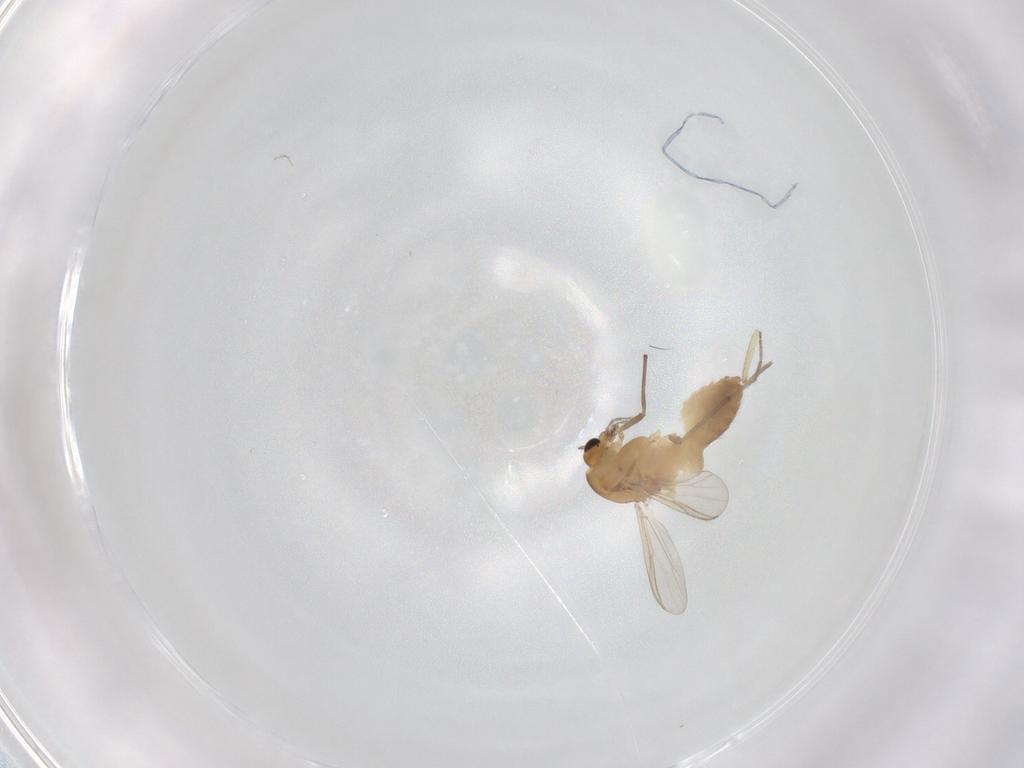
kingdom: Animalia
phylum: Arthropoda
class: Insecta
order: Diptera
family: Chironomidae
